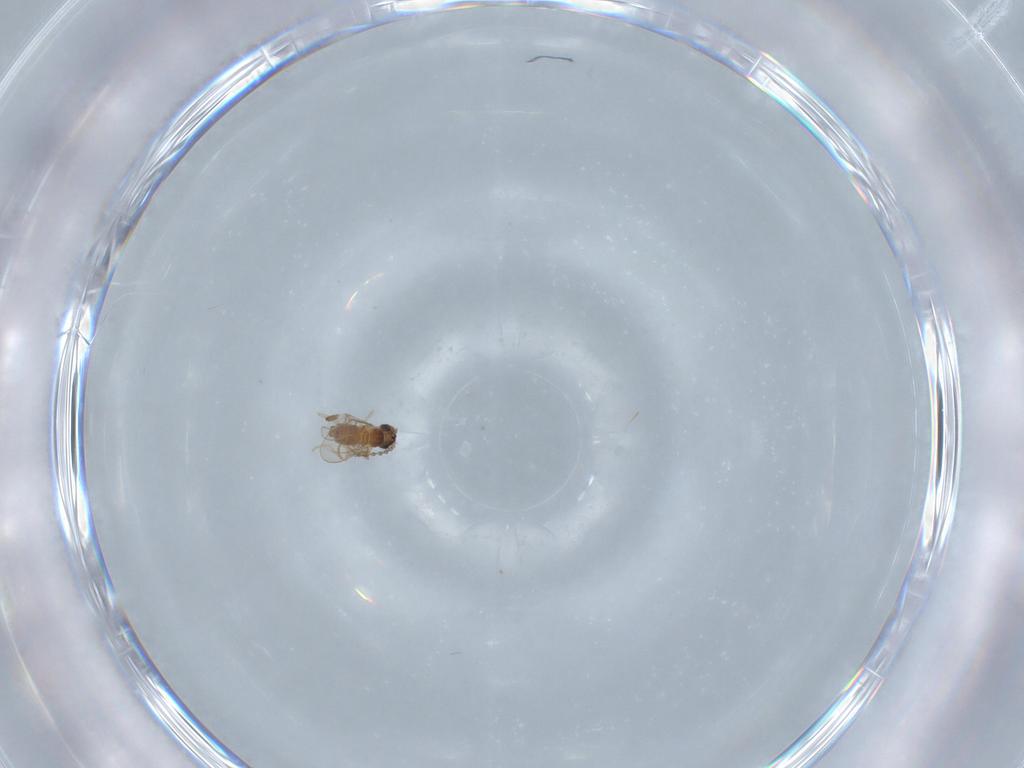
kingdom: Animalia
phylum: Arthropoda
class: Insecta
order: Diptera
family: Cecidomyiidae
